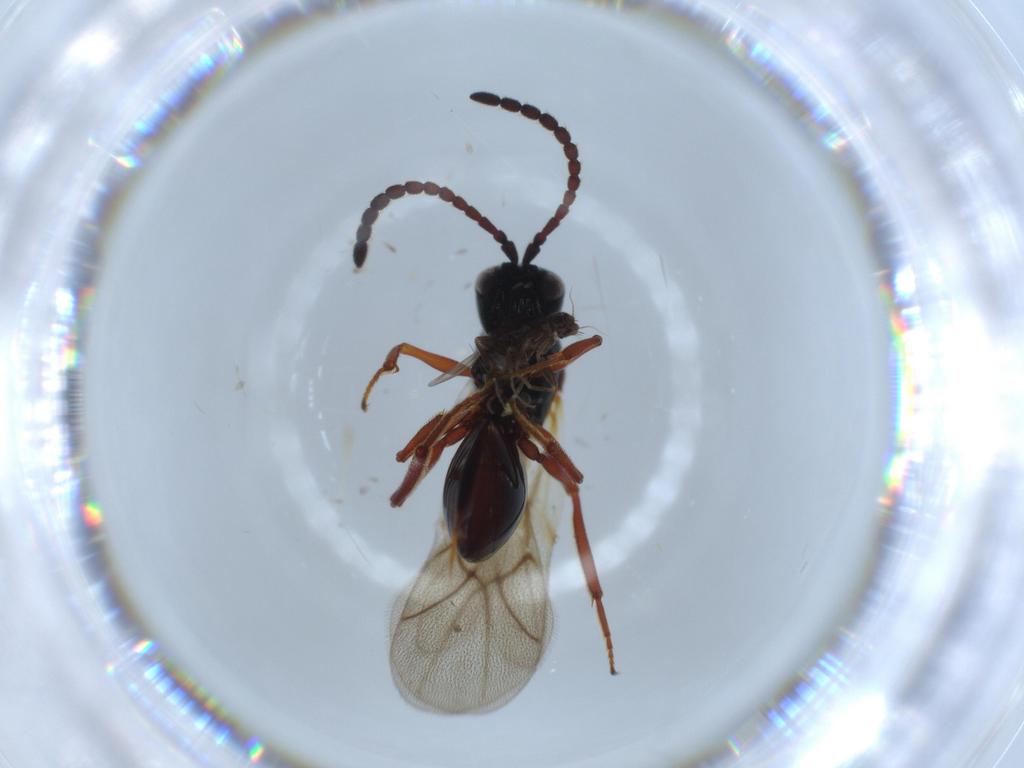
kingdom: Animalia
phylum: Arthropoda
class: Insecta
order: Hymenoptera
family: Figitidae
